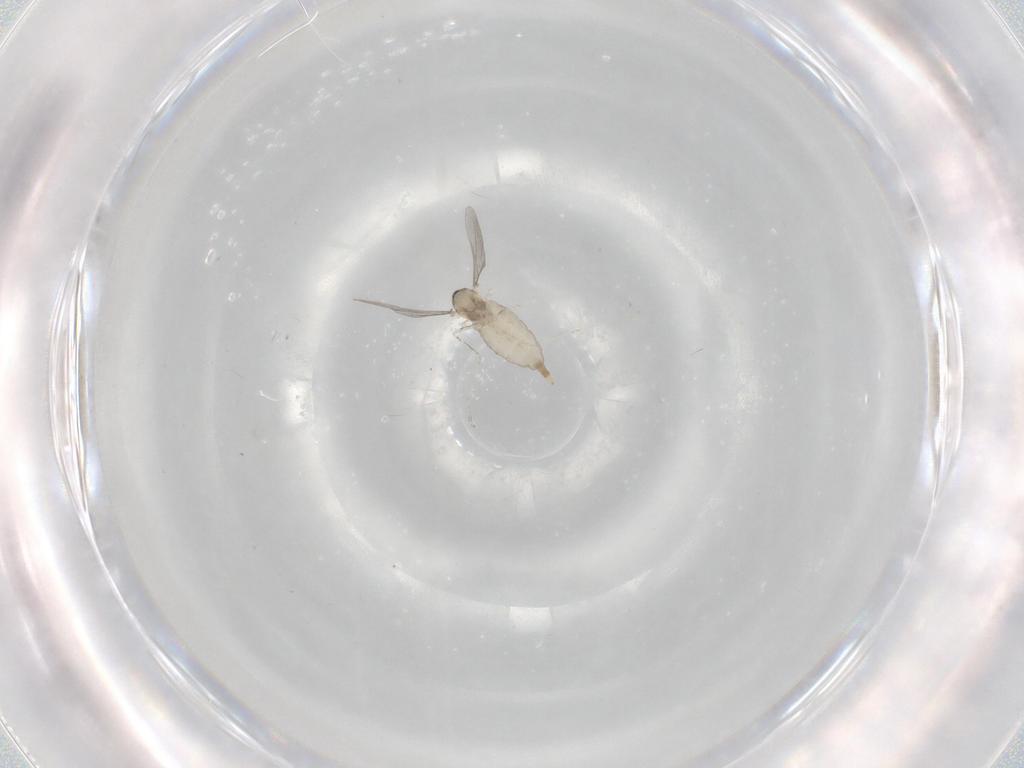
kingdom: Animalia
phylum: Arthropoda
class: Insecta
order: Diptera
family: Cecidomyiidae
